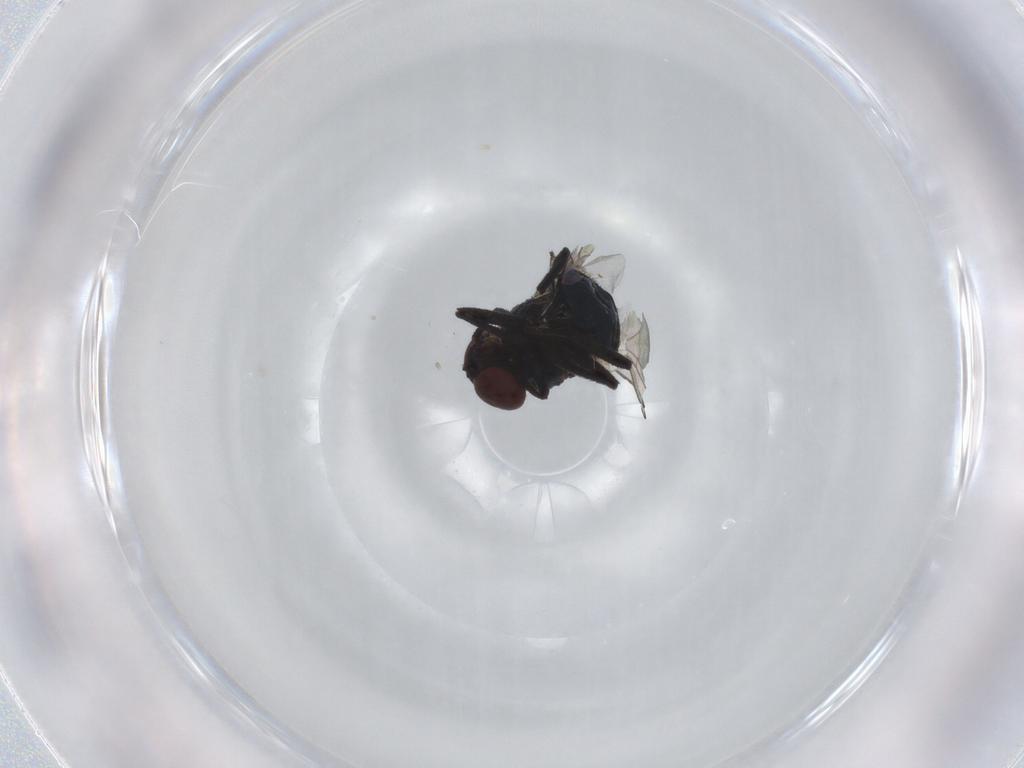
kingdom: Animalia
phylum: Arthropoda
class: Insecta
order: Diptera
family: Agromyzidae
